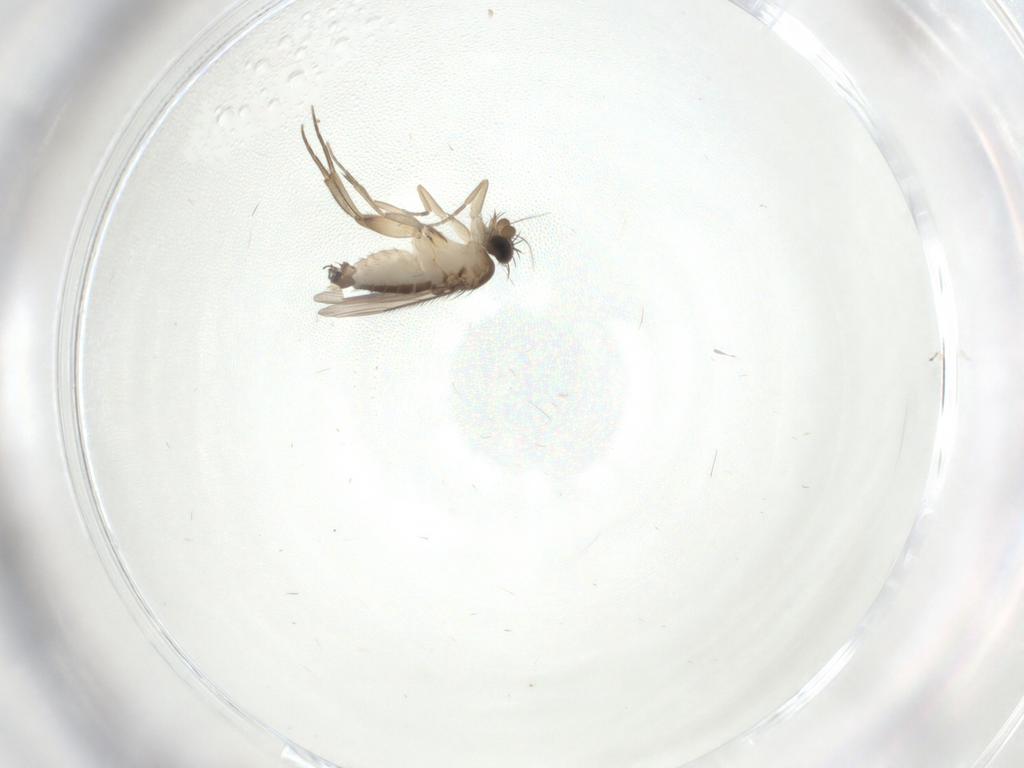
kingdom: Animalia
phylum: Arthropoda
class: Insecta
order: Diptera
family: Phoridae
